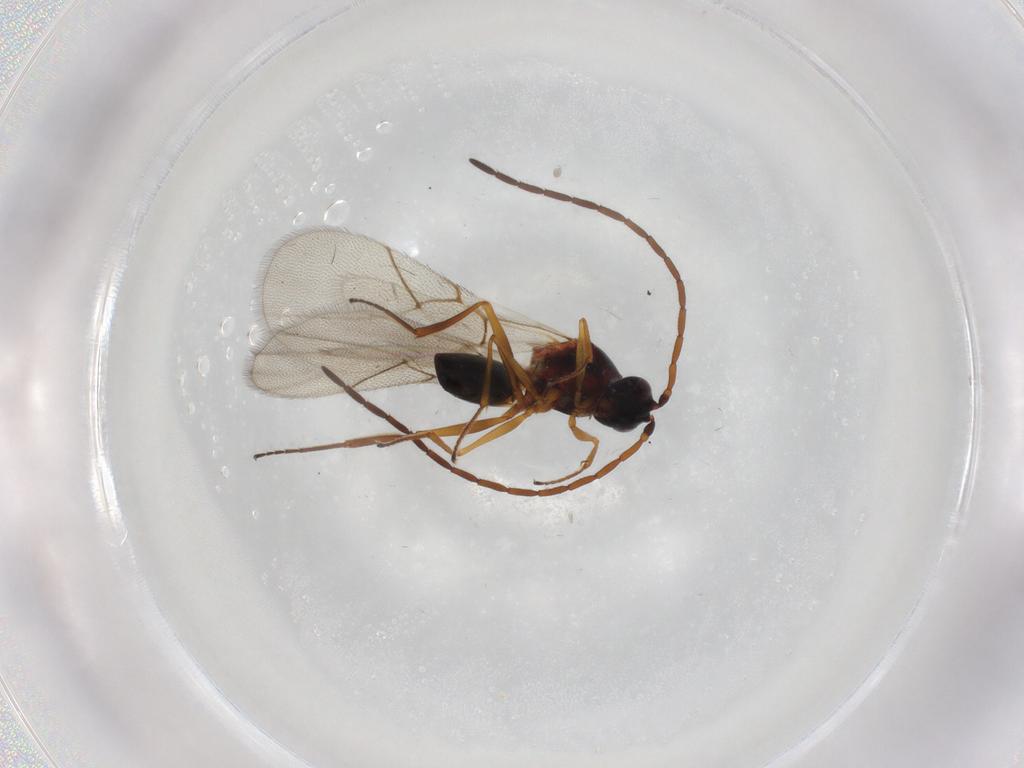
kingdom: Animalia
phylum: Arthropoda
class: Insecta
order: Hymenoptera
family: Figitidae
